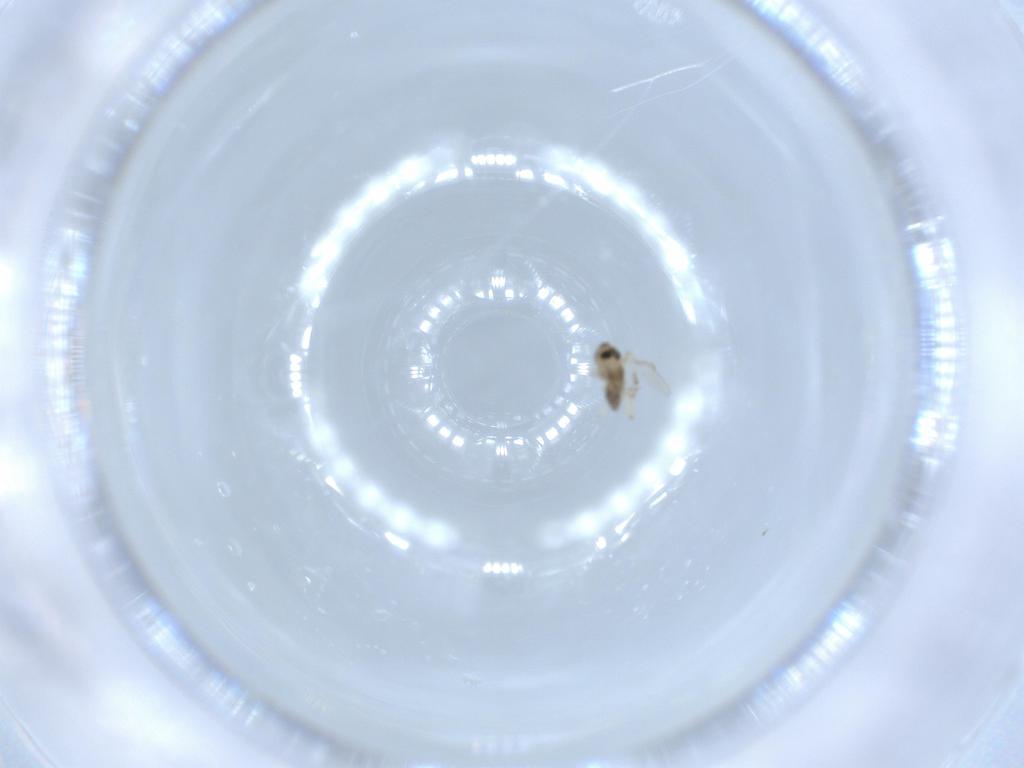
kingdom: Animalia
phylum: Arthropoda
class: Insecta
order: Diptera
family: Chironomidae
